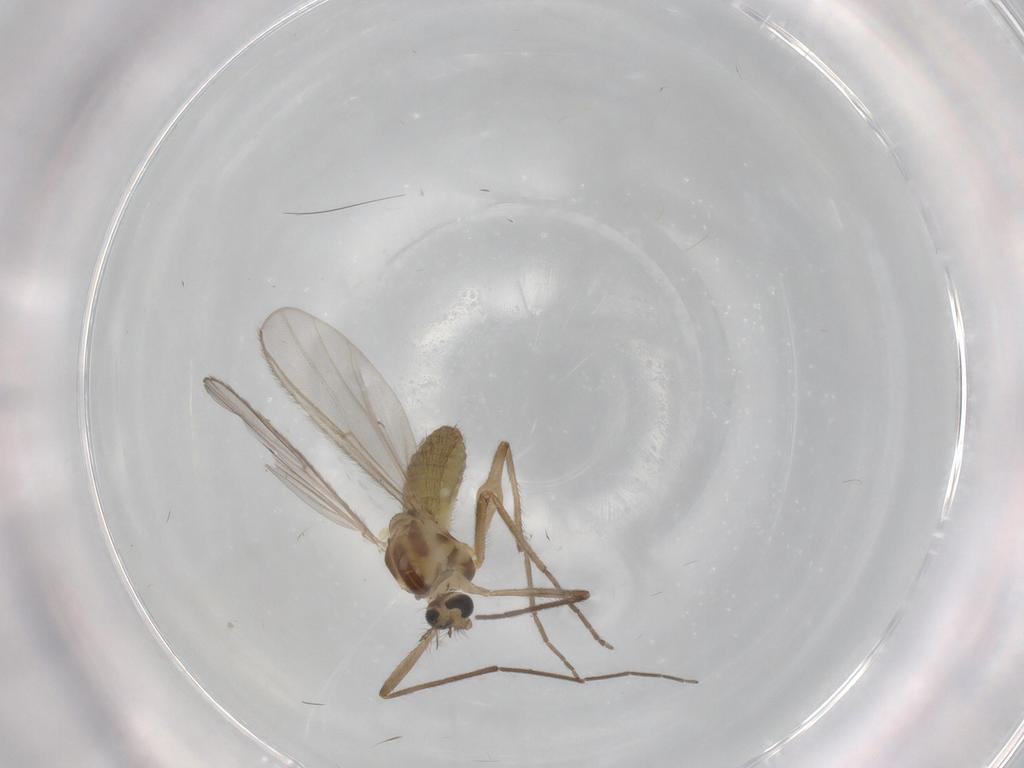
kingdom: Animalia
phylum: Arthropoda
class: Insecta
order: Diptera
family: Chironomidae
